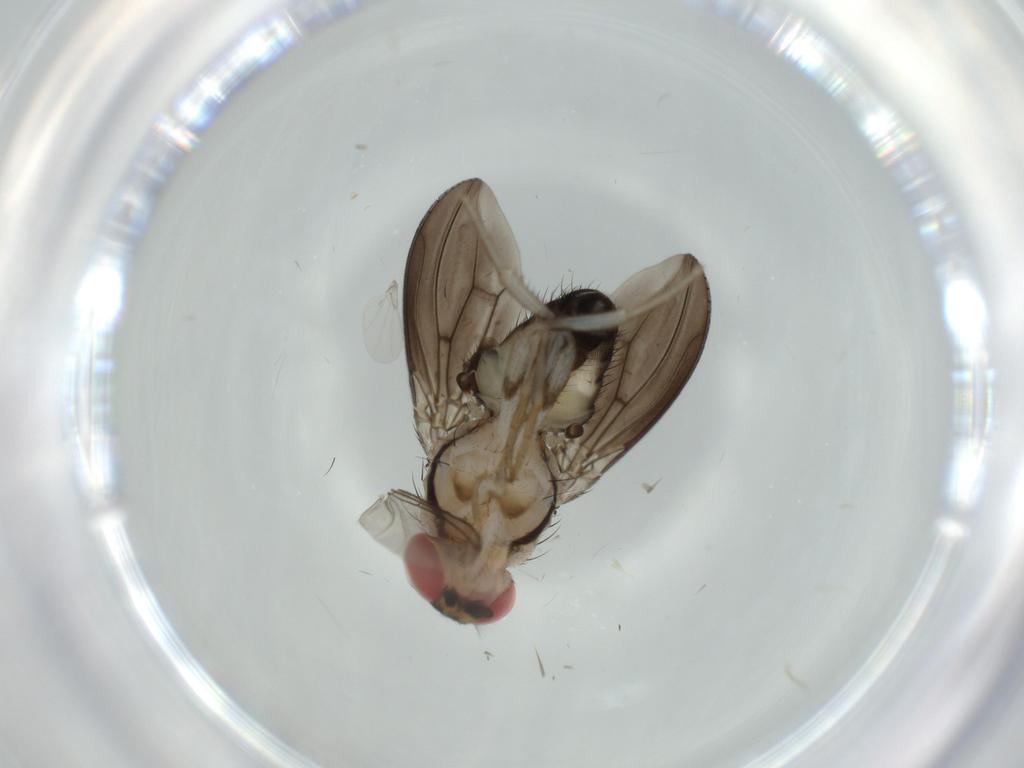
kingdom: Animalia
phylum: Arthropoda
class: Insecta
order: Diptera
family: Drosophilidae
